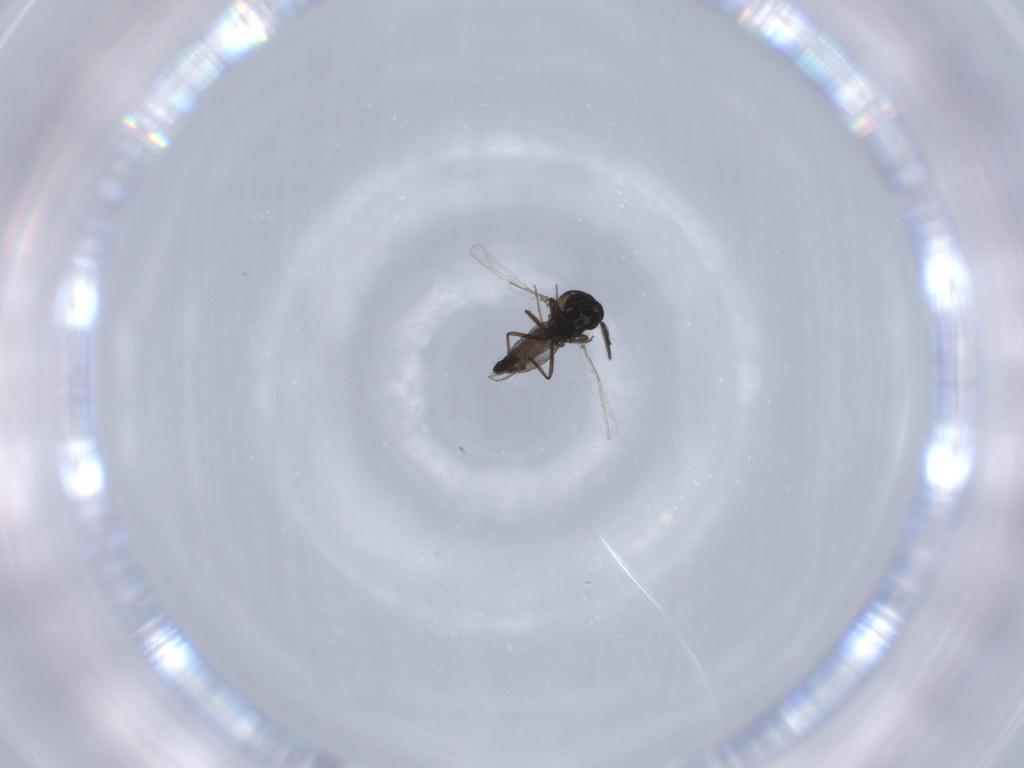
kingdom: Animalia
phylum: Arthropoda
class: Insecta
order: Diptera
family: Ceratopogonidae
